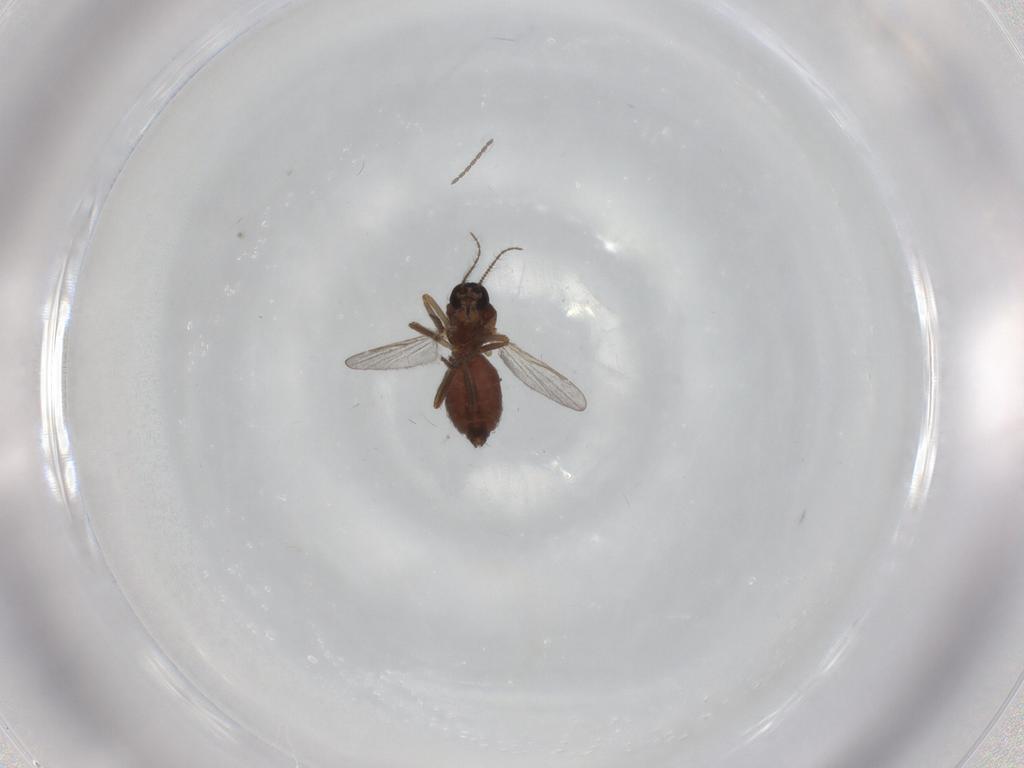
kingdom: Animalia
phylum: Arthropoda
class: Insecta
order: Diptera
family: Ceratopogonidae
